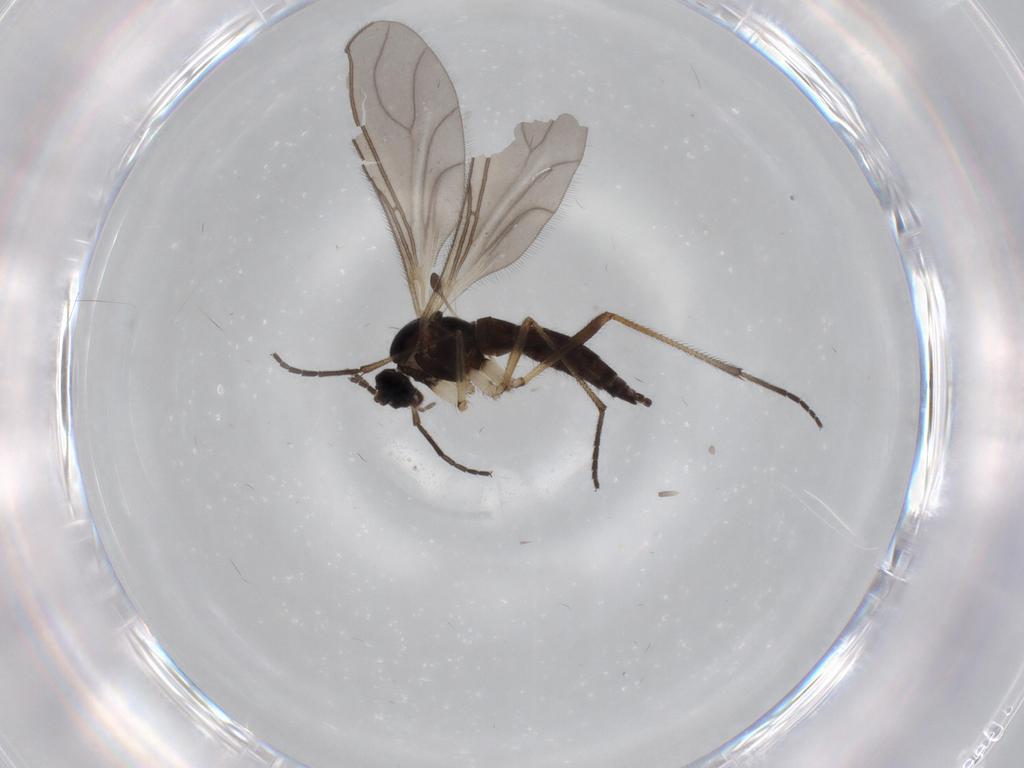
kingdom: Animalia
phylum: Arthropoda
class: Insecta
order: Diptera
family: Sciaridae
